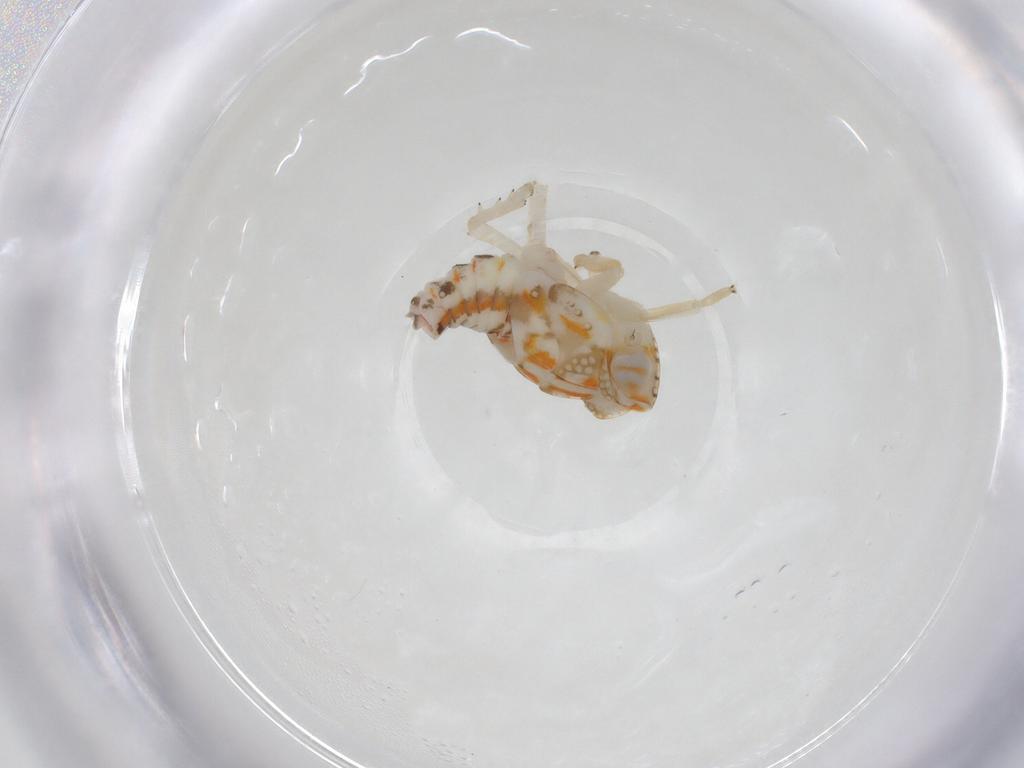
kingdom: Animalia
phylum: Arthropoda
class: Insecta
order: Hemiptera
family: Nogodinidae
